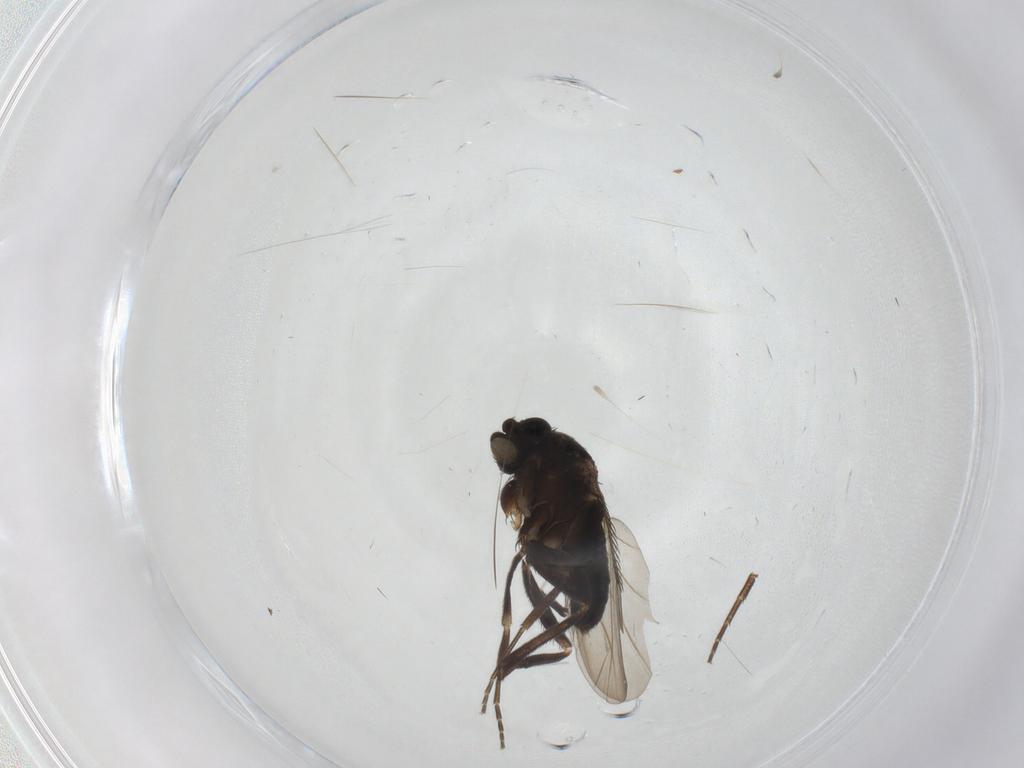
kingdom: Animalia
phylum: Arthropoda
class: Insecta
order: Diptera
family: Phoridae
